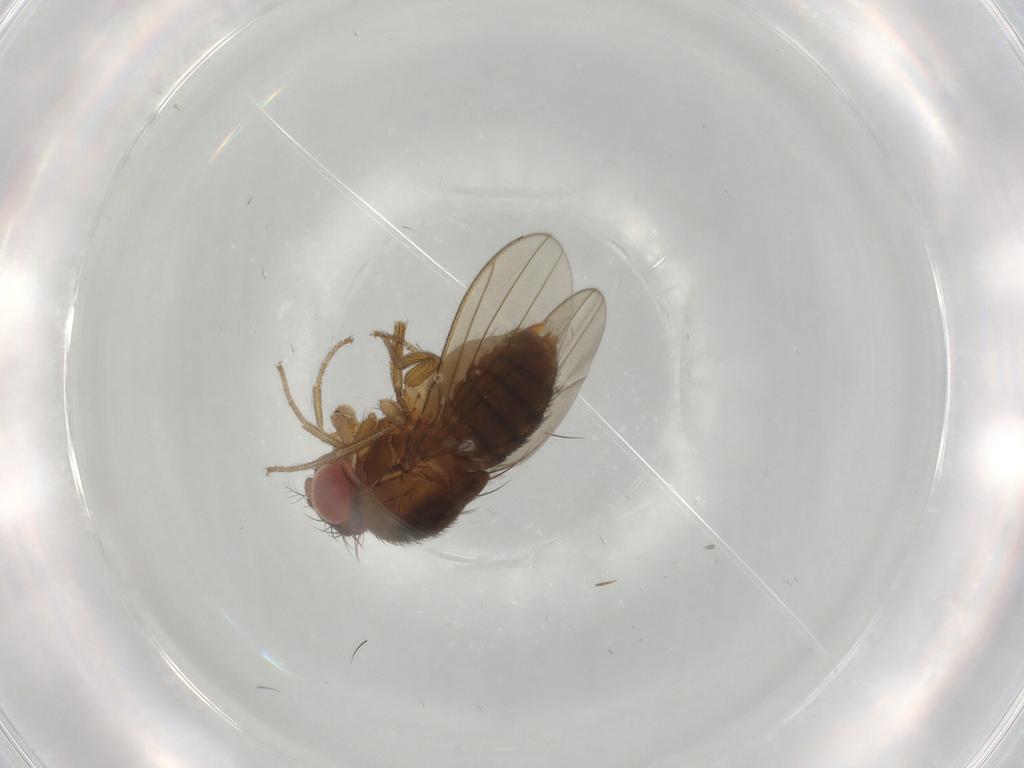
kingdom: Animalia
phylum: Arthropoda
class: Insecta
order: Diptera
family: Drosophilidae
